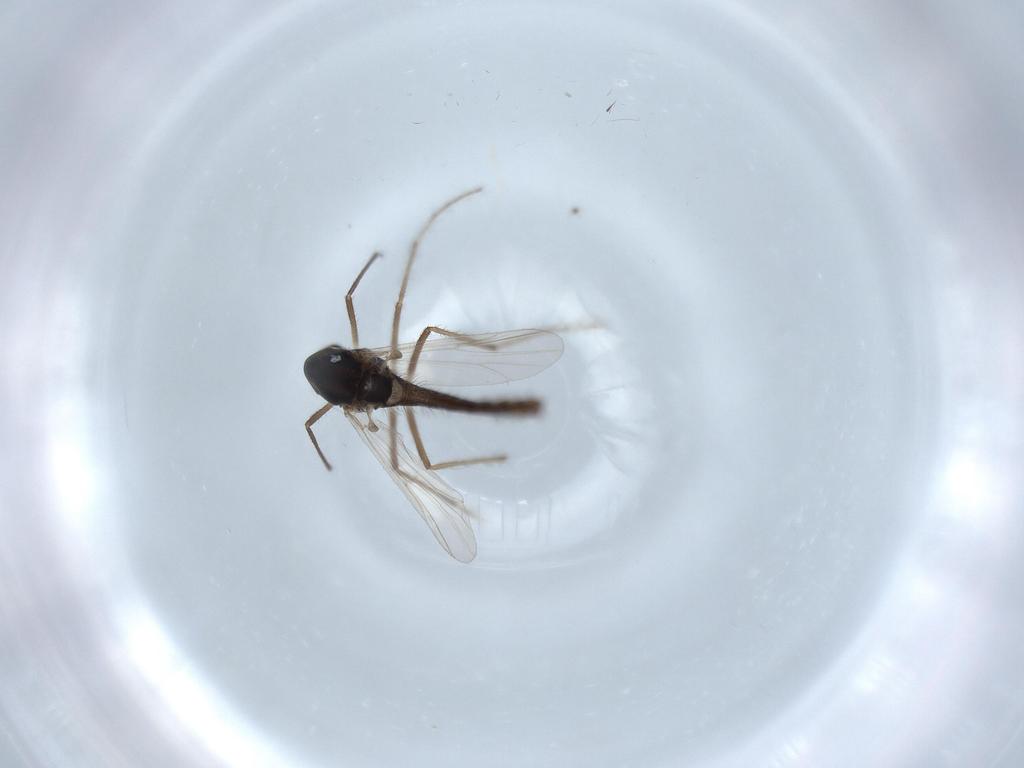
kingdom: Animalia
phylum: Arthropoda
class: Insecta
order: Diptera
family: Chironomidae
